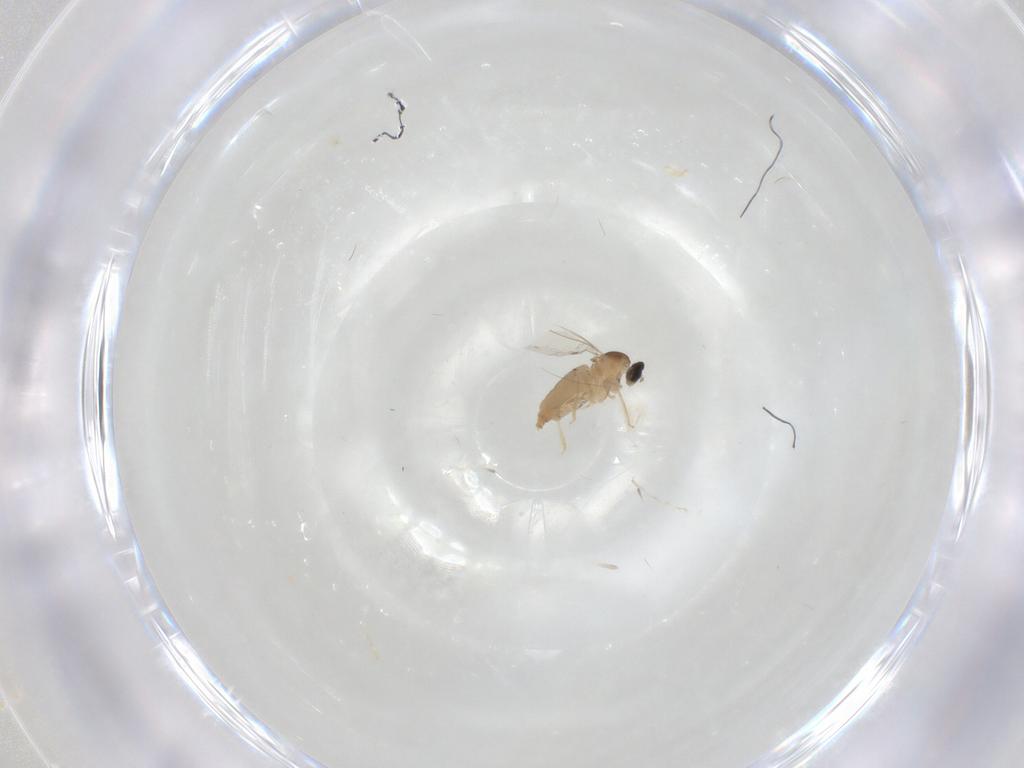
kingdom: Animalia
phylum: Arthropoda
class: Insecta
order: Diptera
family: Cecidomyiidae
